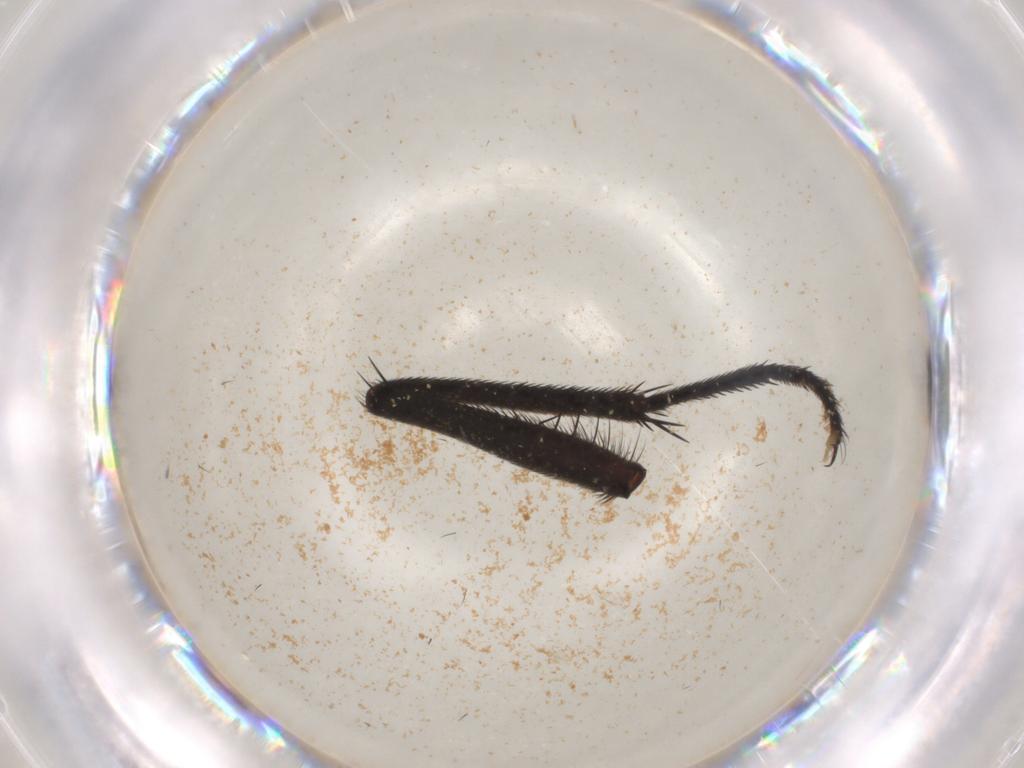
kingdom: Animalia
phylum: Arthropoda
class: Insecta
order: Diptera
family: Muscidae
